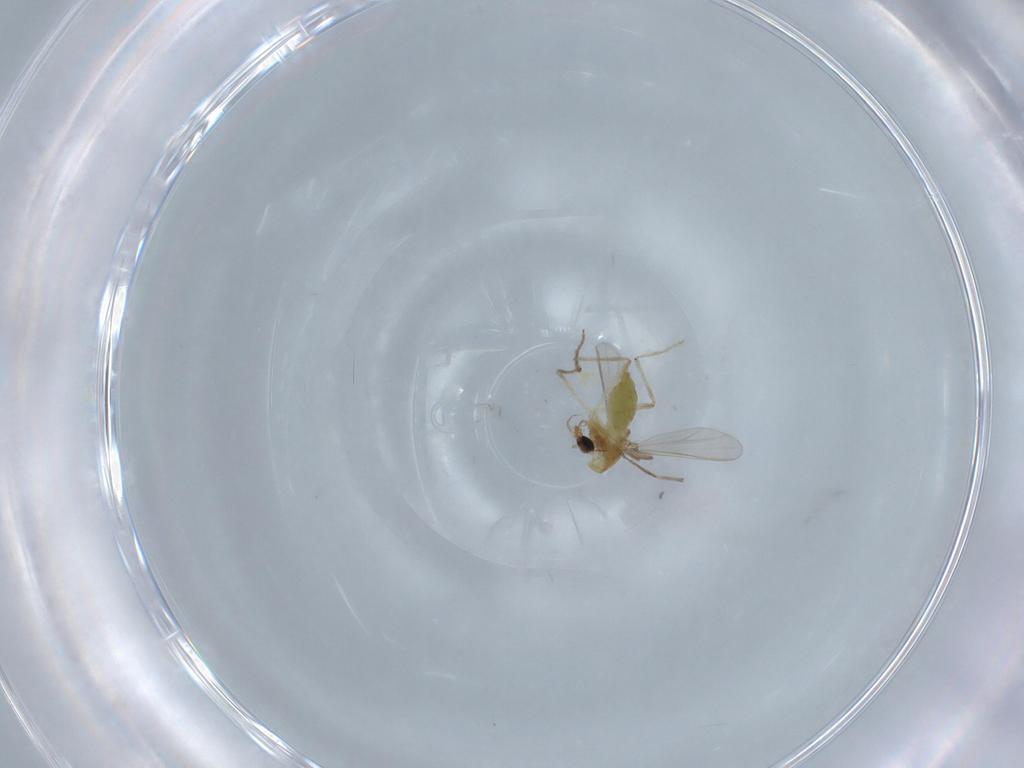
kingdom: Animalia
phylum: Arthropoda
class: Insecta
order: Diptera
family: Chironomidae
